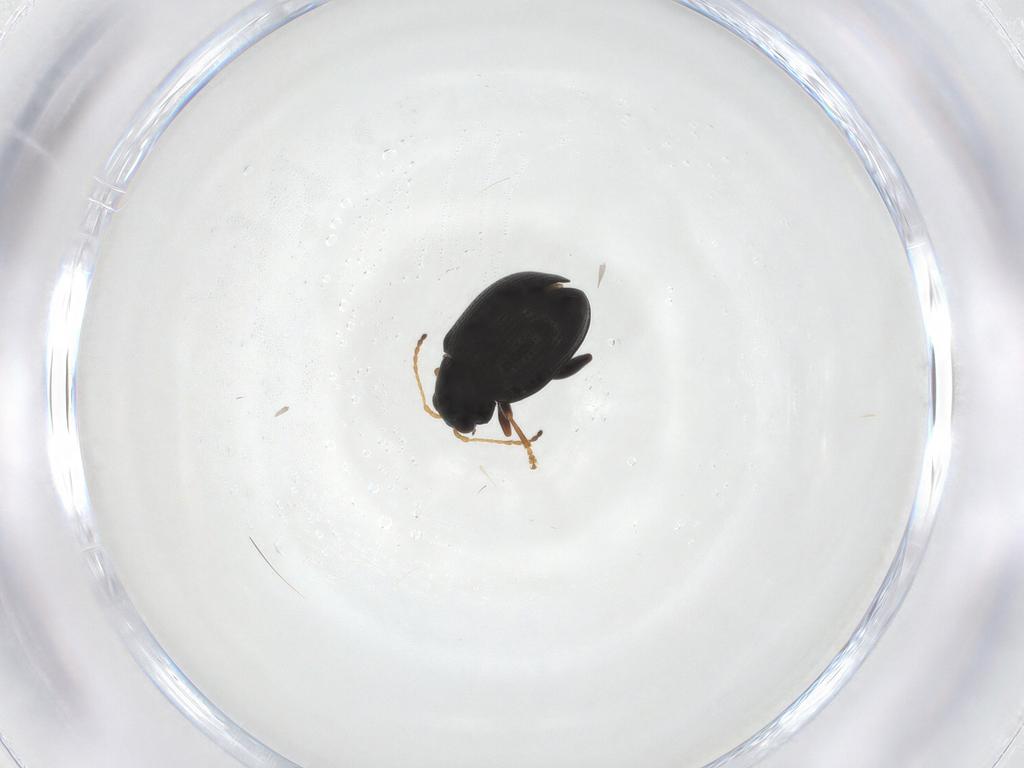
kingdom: Animalia
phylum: Arthropoda
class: Insecta
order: Coleoptera
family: Chrysomelidae
